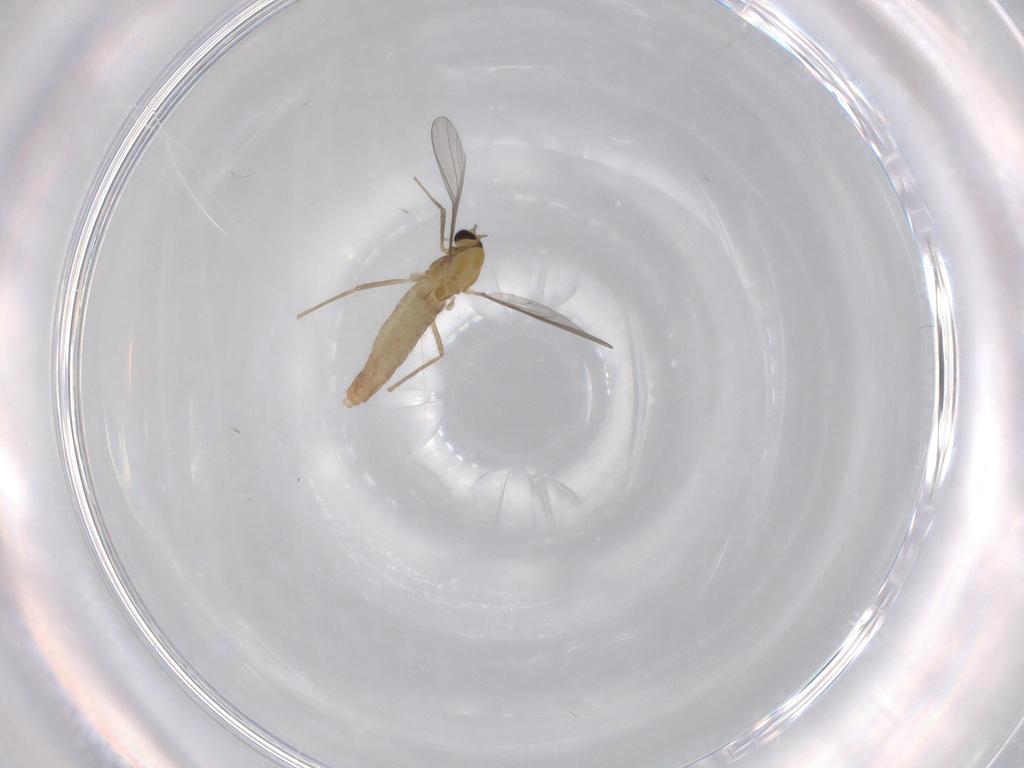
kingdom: Animalia
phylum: Arthropoda
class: Insecta
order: Diptera
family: Chironomidae
